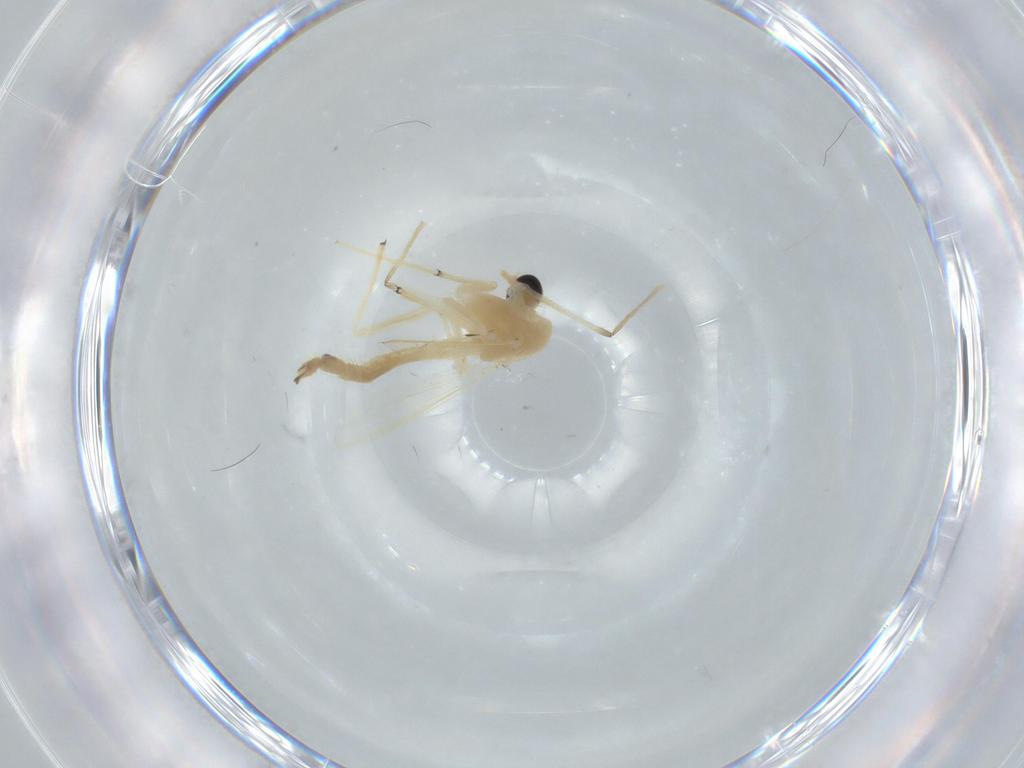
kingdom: Animalia
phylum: Arthropoda
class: Insecta
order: Diptera
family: Chironomidae
